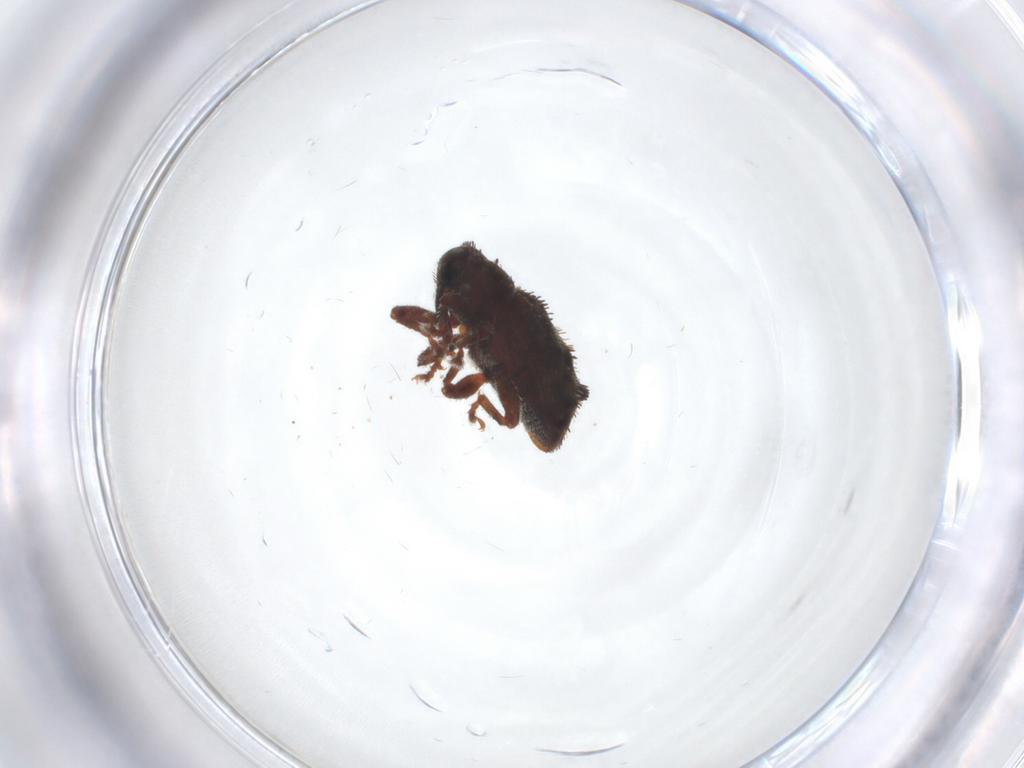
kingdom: Animalia
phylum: Arthropoda
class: Insecta
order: Coleoptera
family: Curculionidae
